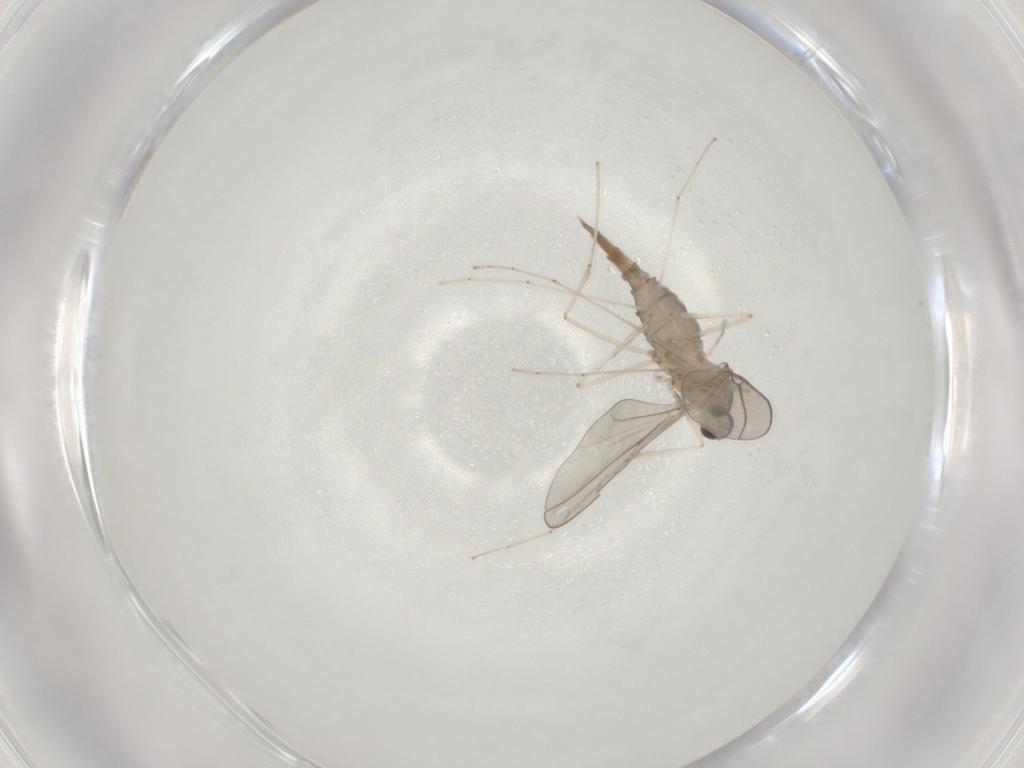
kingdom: Animalia
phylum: Arthropoda
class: Insecta
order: Diptera
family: Cecidomyiidae
